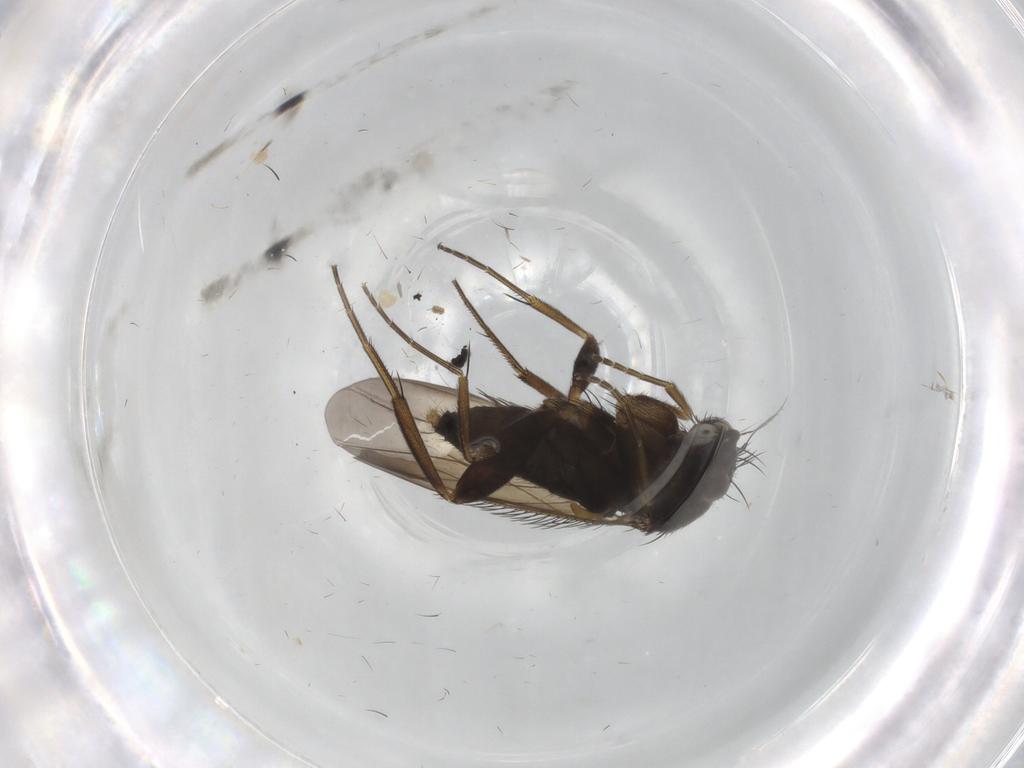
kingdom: Animalia
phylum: Arthropoda
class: Insecta
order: Diptera
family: Phoridae
